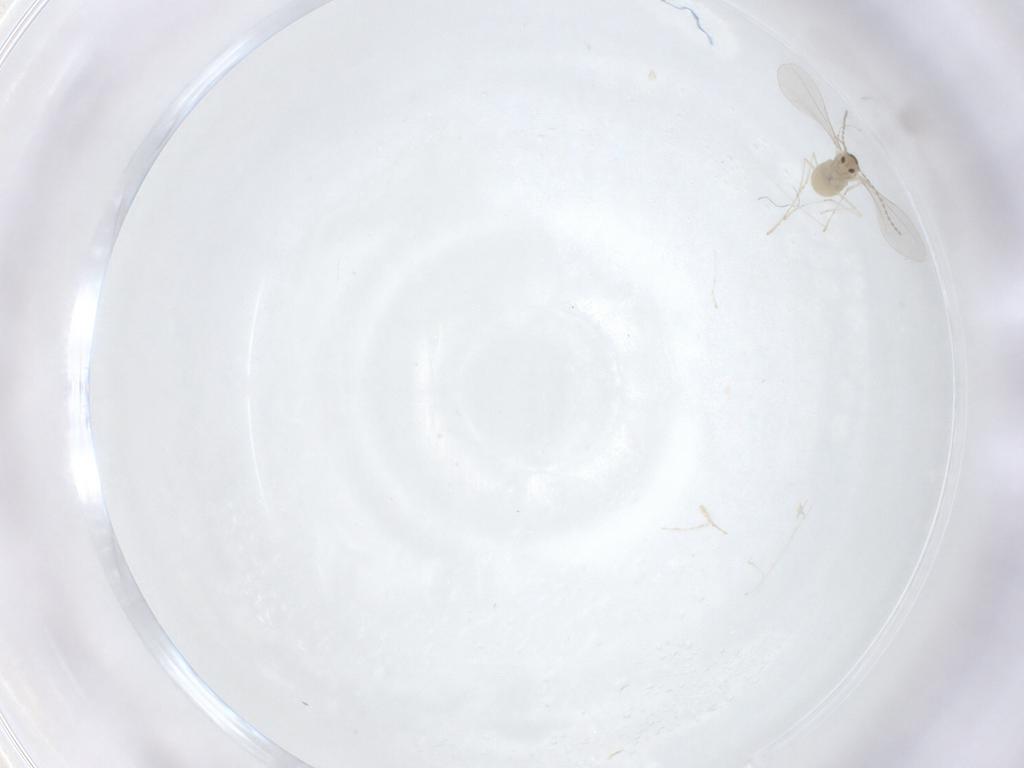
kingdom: Animalia
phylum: Arthropoda
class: Insecta
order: Diptera
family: Cecidomyiidae
